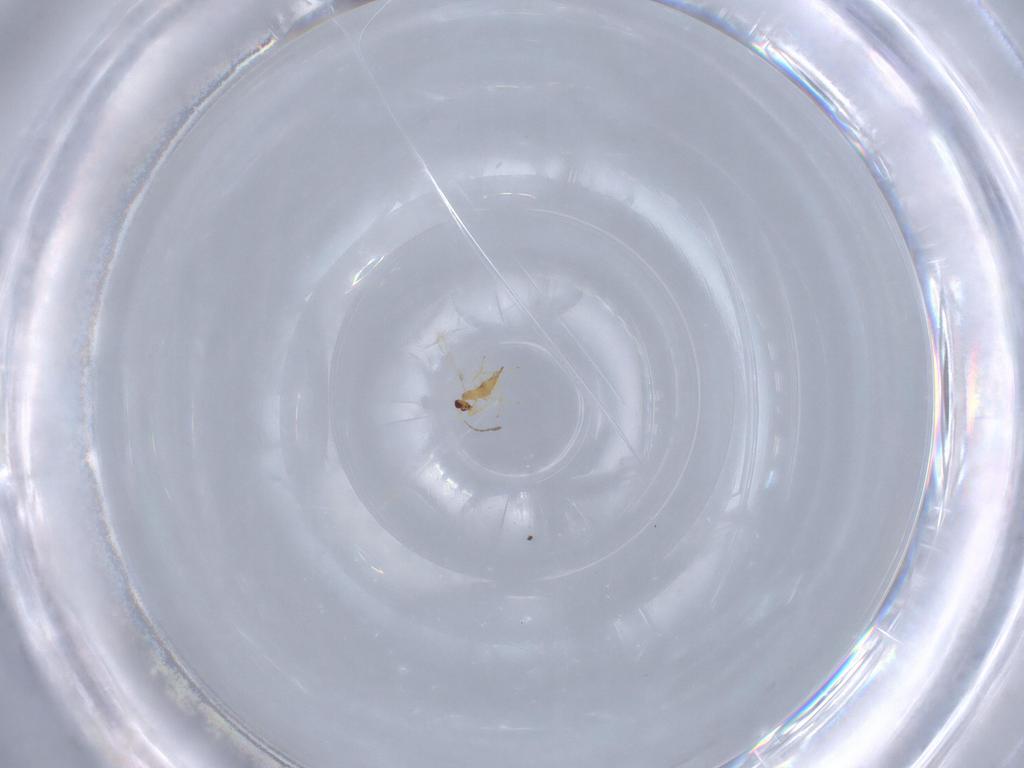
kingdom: Animalia
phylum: Arthropoda
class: Insecta
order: Hymenoptera
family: Mymaridae
